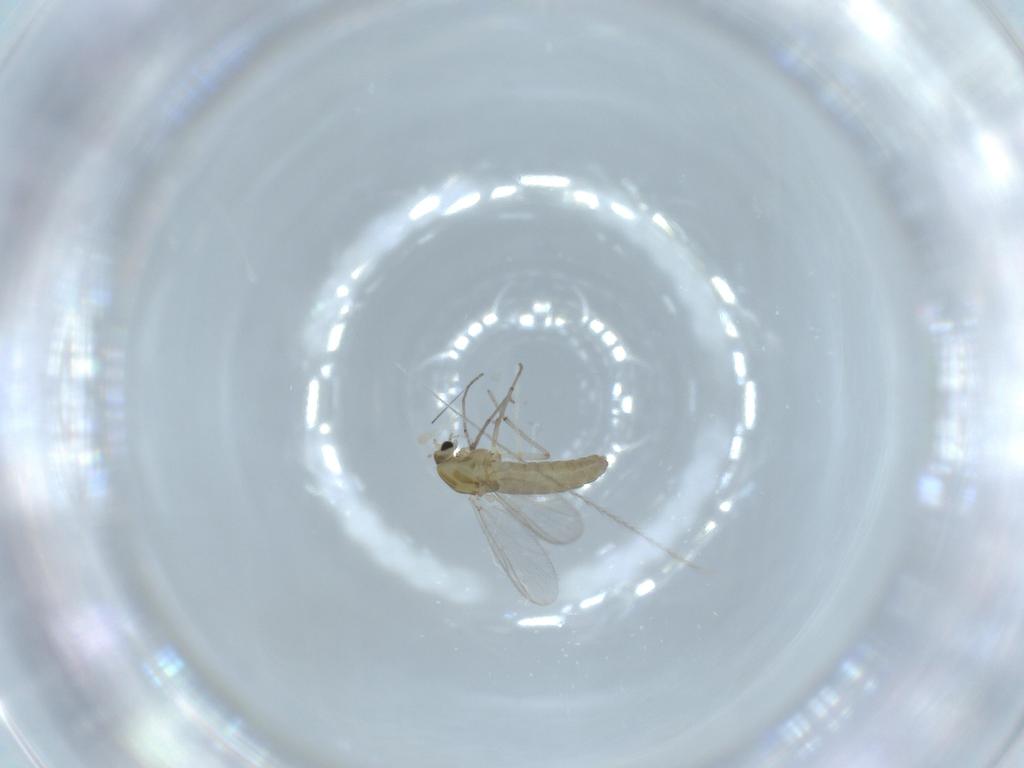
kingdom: Animalia
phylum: Arthropoda
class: Insecta
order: Diptera
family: Chironomidae
